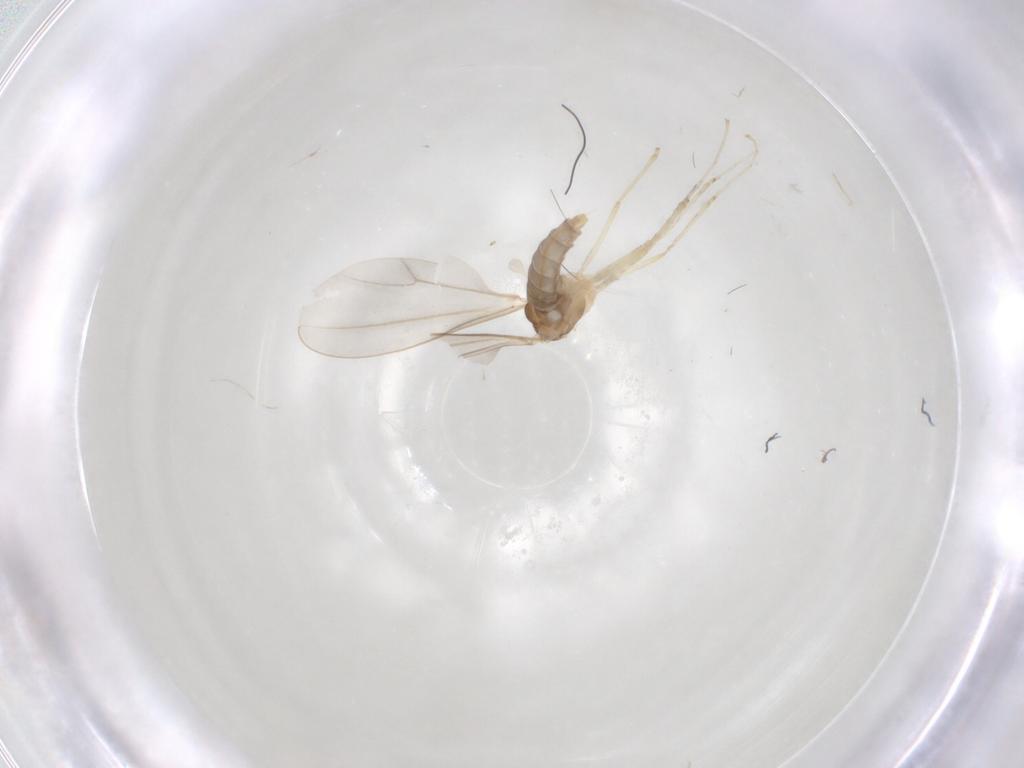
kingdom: Animalia
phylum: Arthropoda
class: Insecta
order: Diptera
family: Cecidomyiidae
